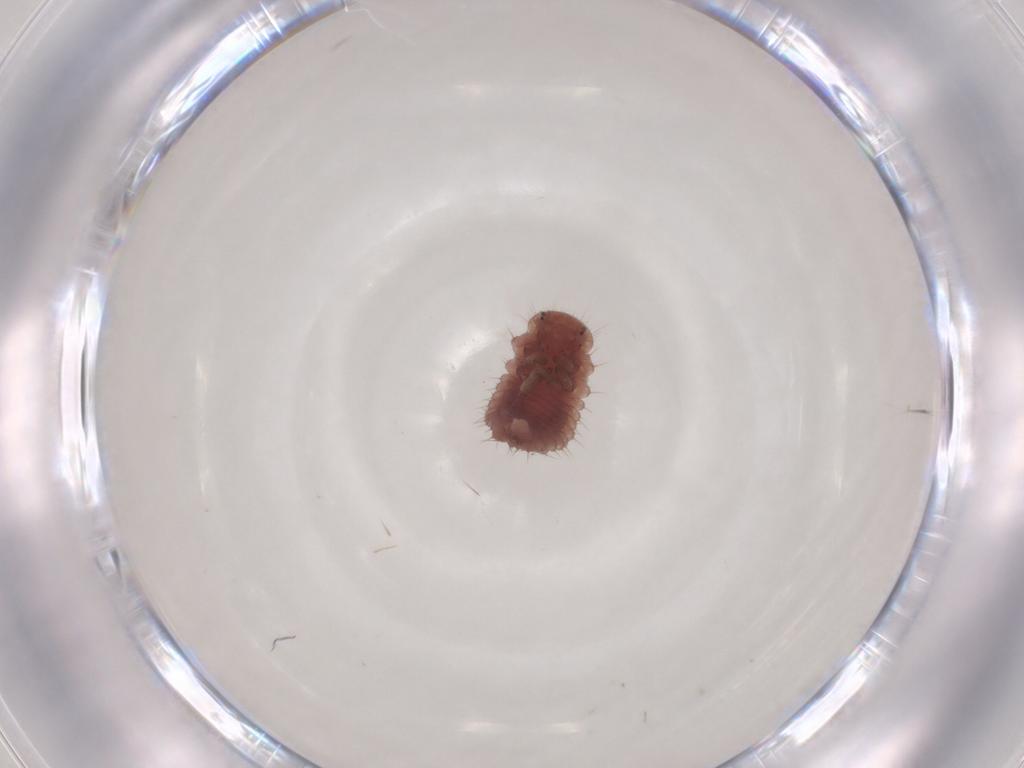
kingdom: Animalia
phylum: Arthropoda
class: Insecta
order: Coleoptera
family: Coccinellidae
